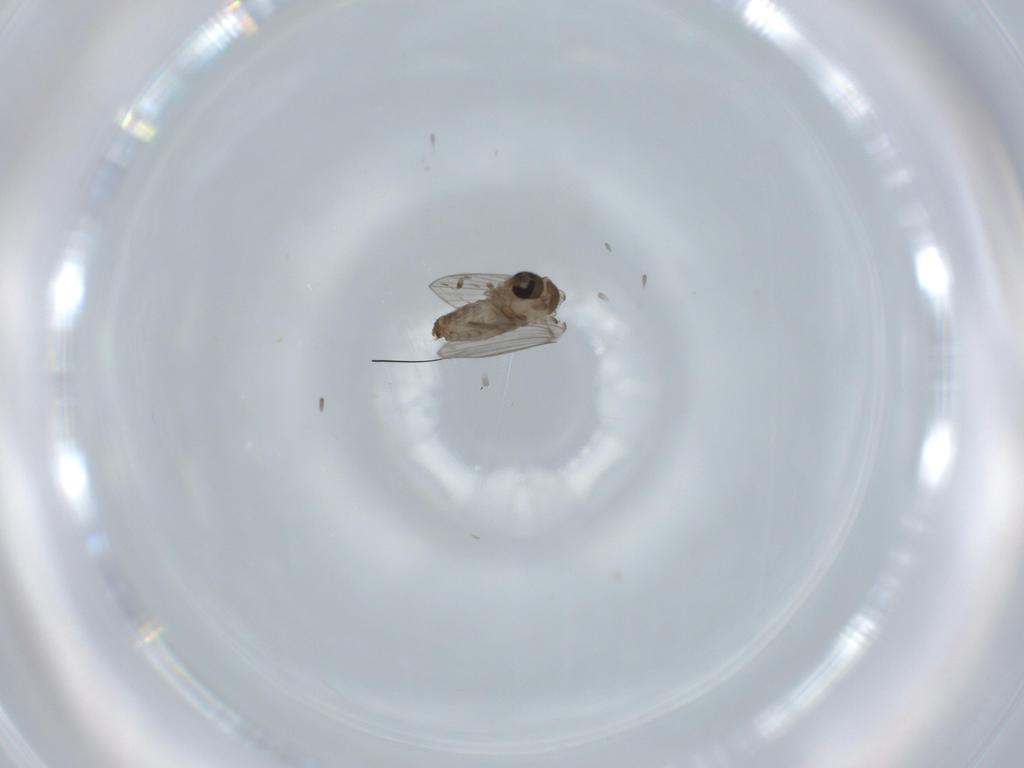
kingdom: Animalia
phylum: Arthropoda
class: Insecta
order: Diptera
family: Psychodidae
